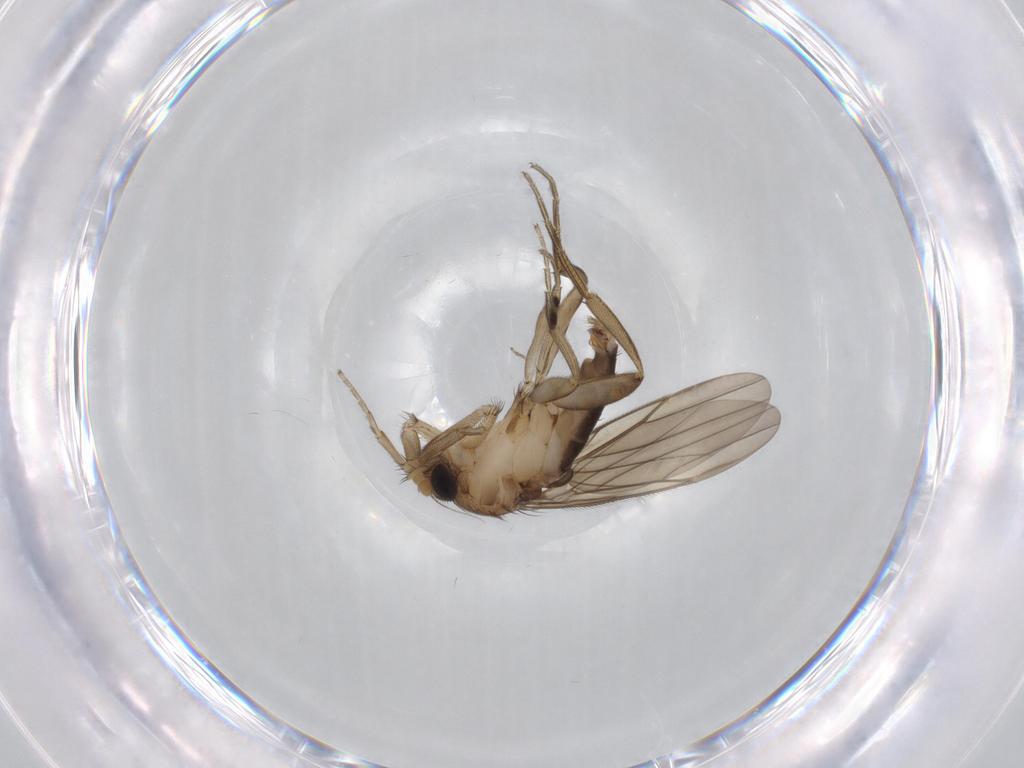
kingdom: Animalia
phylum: Arthropoda
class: Insecta
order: Diptera
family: Phoridae
